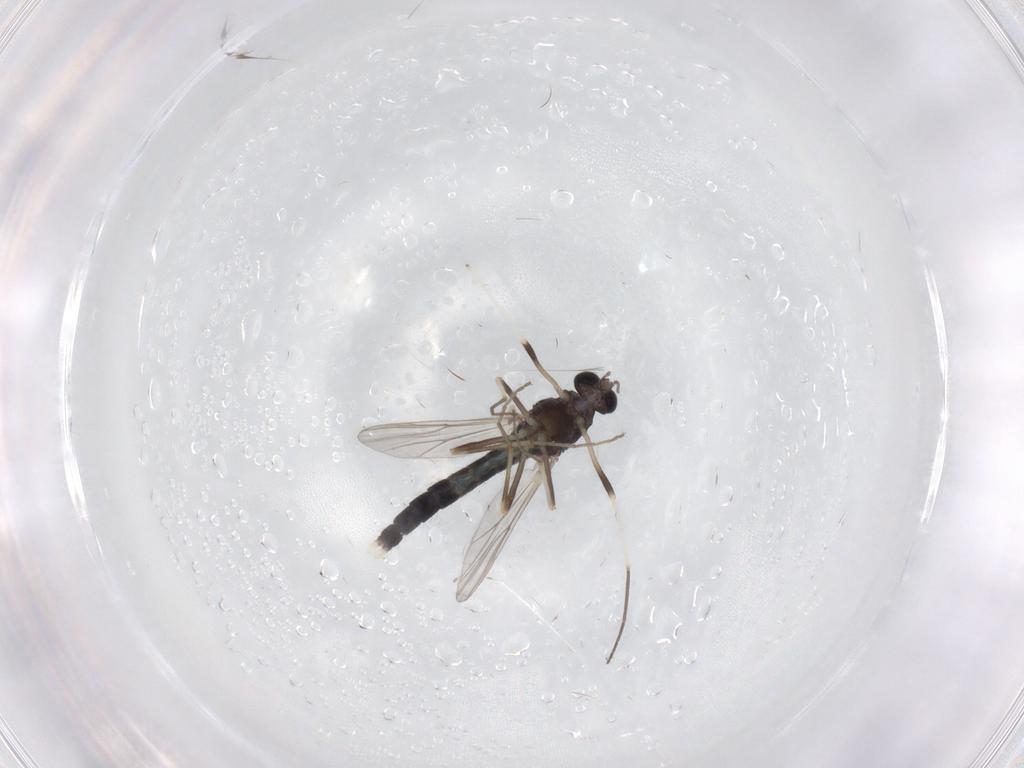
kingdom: Animalia
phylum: Arthropoda
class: Insecta
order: Diptera
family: Chironomidae
